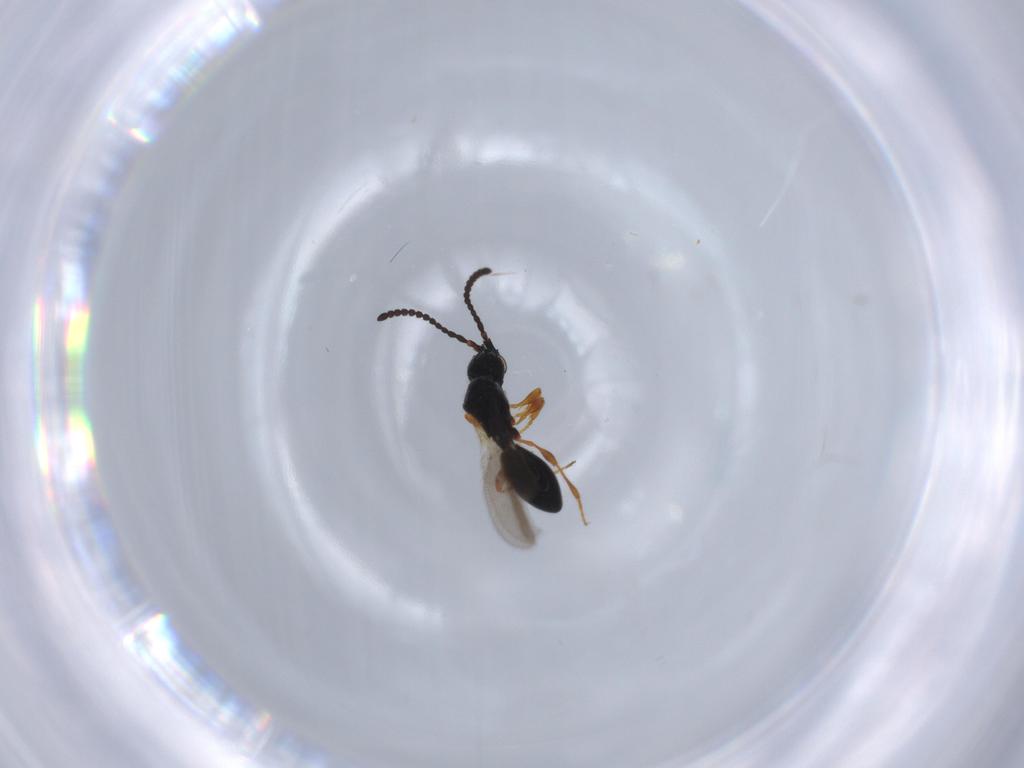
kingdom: Animalia
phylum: Arthropoda
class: Insecta
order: Hymenoptera
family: Diapriidae
